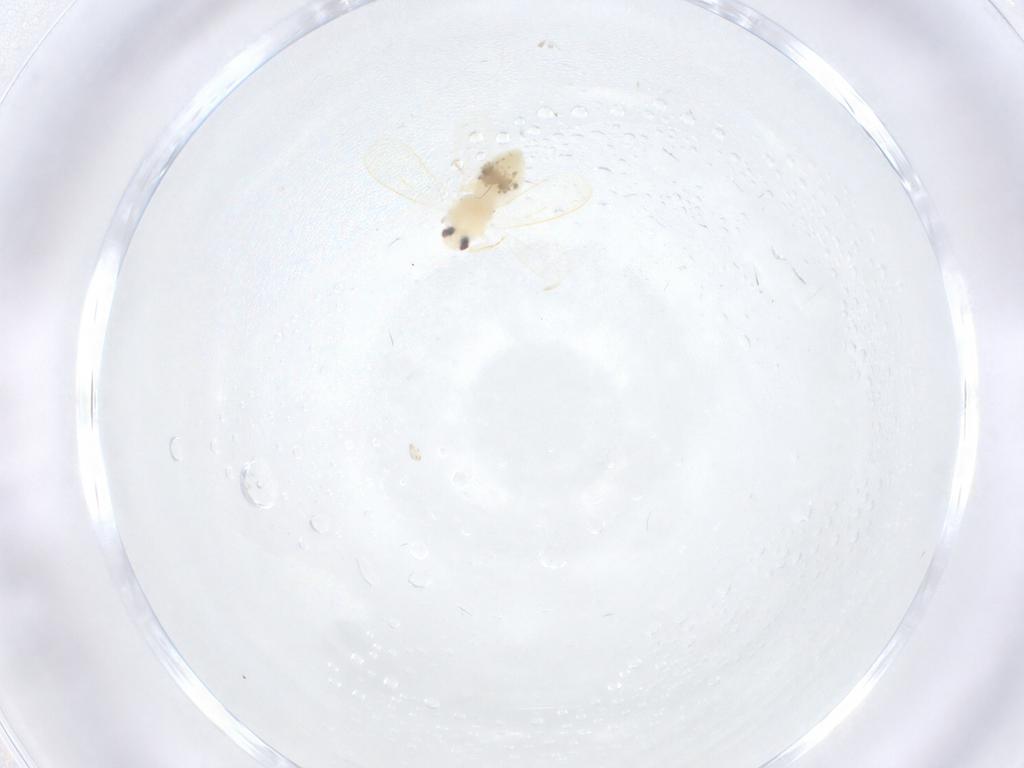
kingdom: Animalia
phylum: Arthropoda
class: Insecta
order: Hemiptera
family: Aleyrodidae
